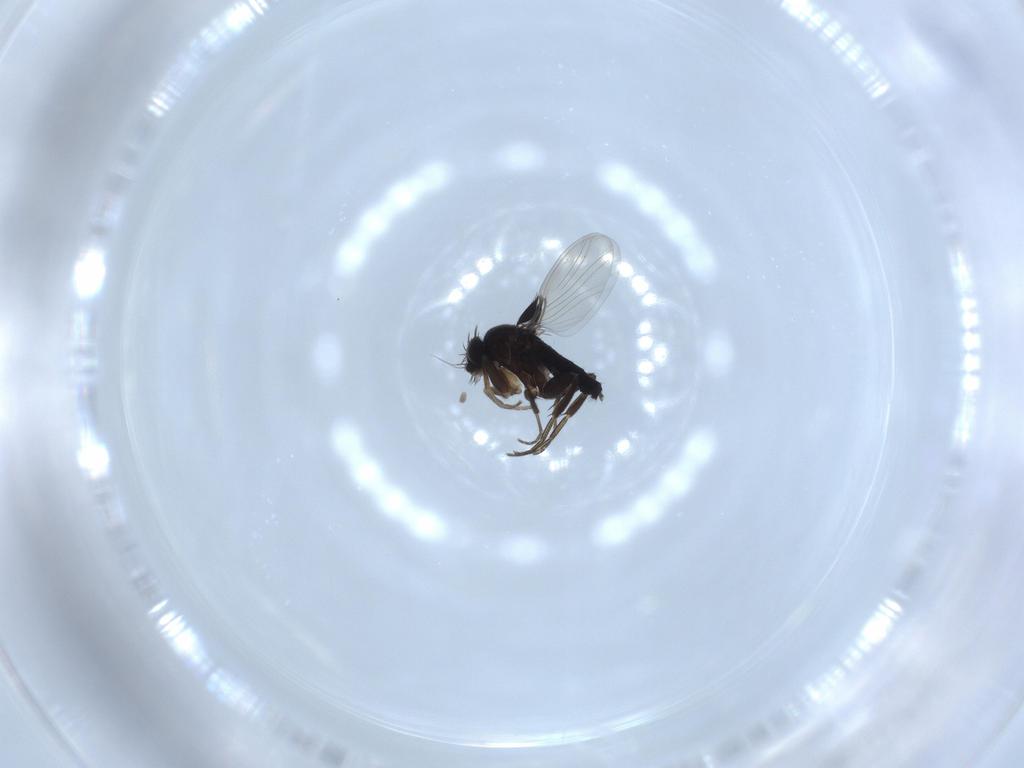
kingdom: Animalia
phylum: Arthropoda
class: Insecta
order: Diptera
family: Phoridae
